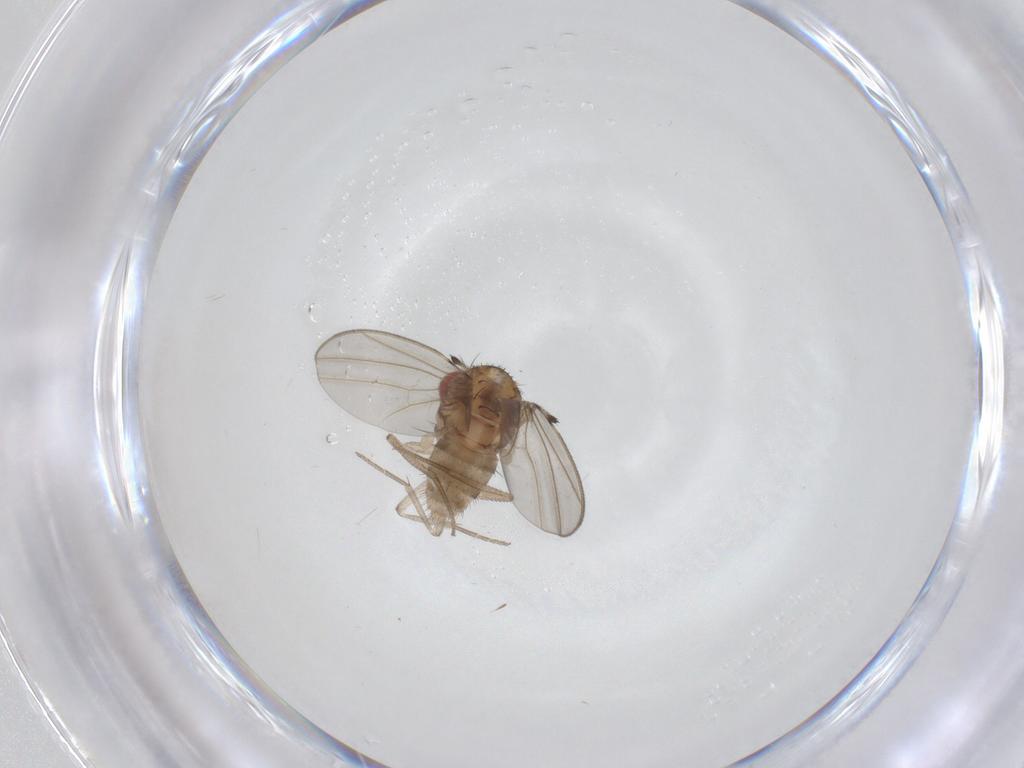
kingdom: Animalia
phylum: Arthropoda
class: Insecta
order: Diptera
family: Drosophilidae
